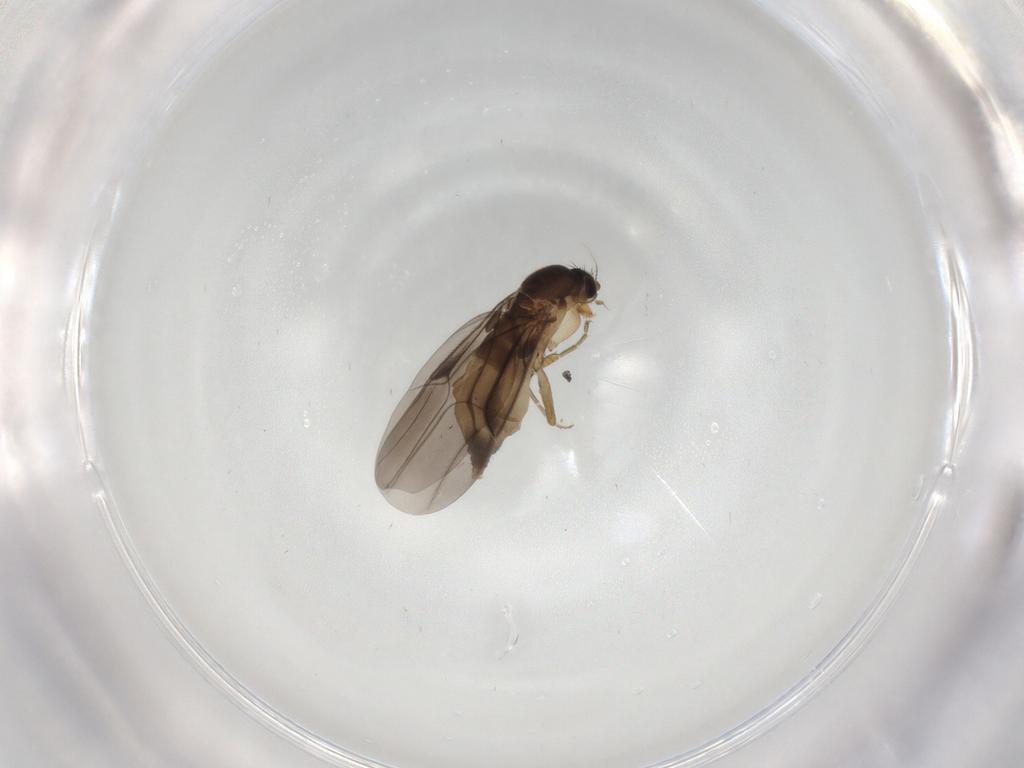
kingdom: Animalia
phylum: Arthropoda
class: Insecta
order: Diptera
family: Phoridae
